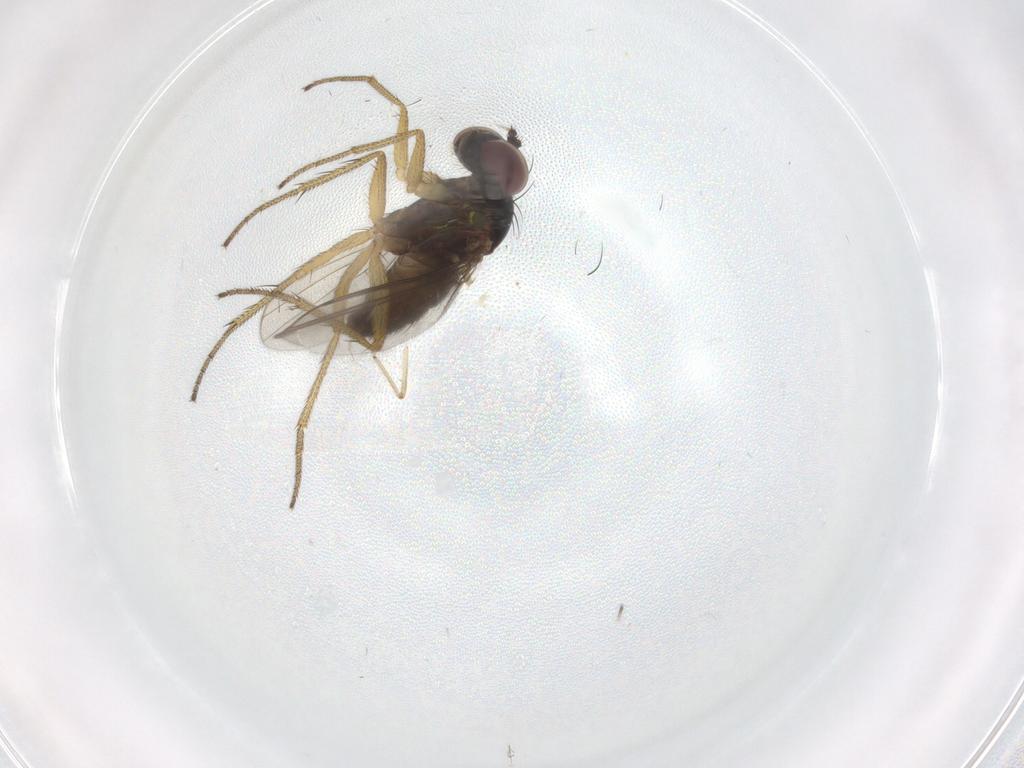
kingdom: Animalia
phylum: Arthropoda
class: Insecta
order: Diptera
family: Ceratopogonidae
